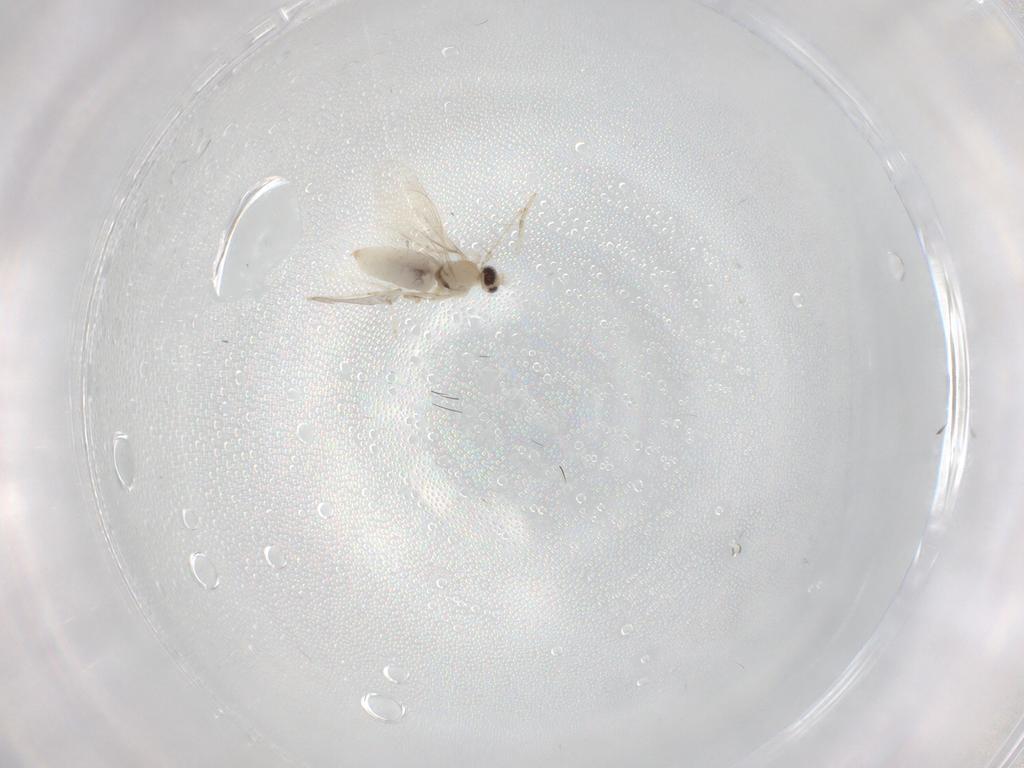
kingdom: Animalia
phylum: Arthropoda
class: Insecta
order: Diptera
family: Cecidomyiidae
